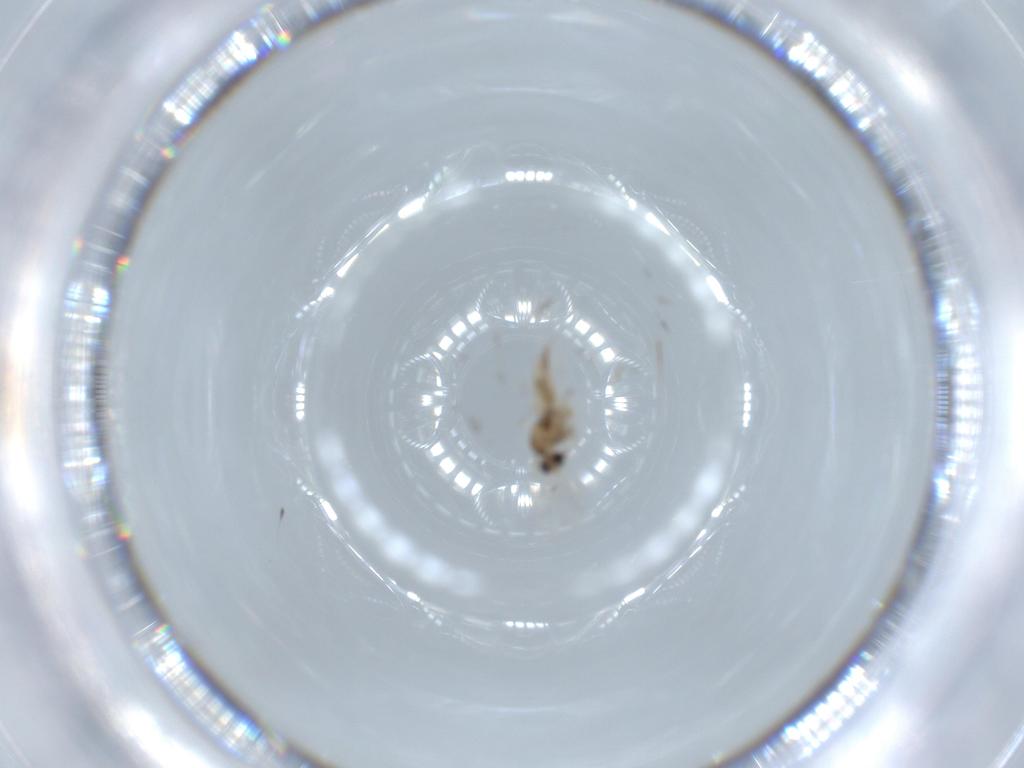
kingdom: Animalia
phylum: Arthropoda
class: Insecta
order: Diptera
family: Cecidomyiidae
